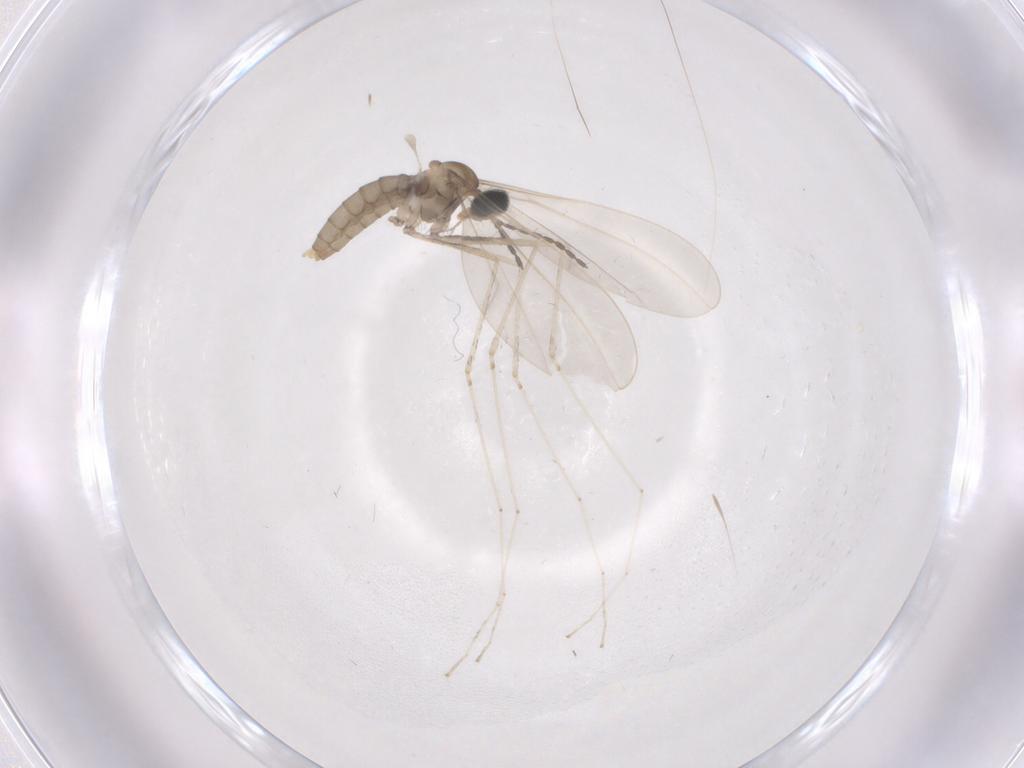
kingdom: Animalia
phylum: Arthropoda
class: Insecta
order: Diptera
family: Cecidomyiidae
